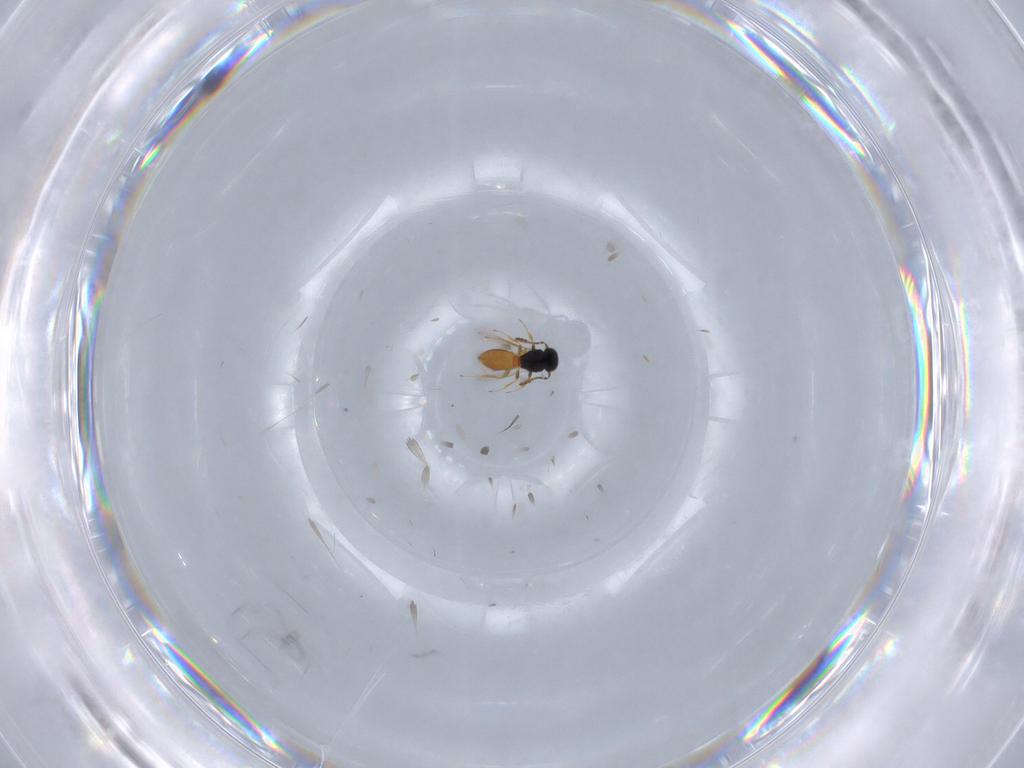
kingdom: Animalia
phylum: Arthropoda
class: Insecta
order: Hymenoptera
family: Scelionidae
